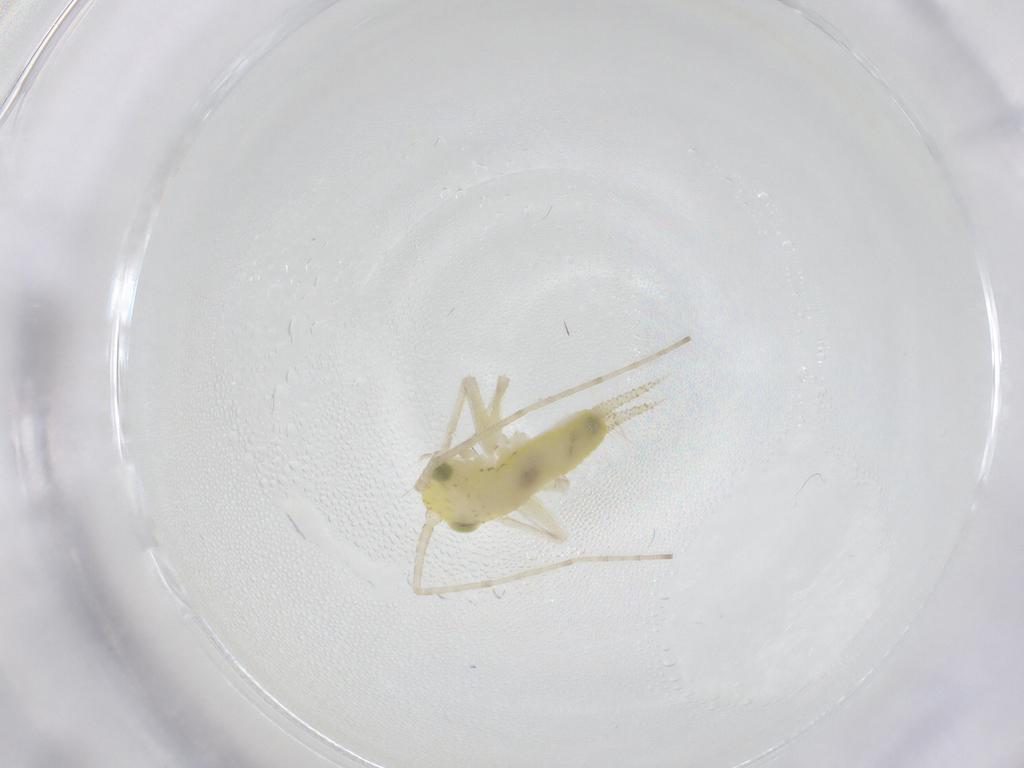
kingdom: Animalia
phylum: Arthropoda
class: Insecta
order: Orthoptera
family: Trigonidiidae
